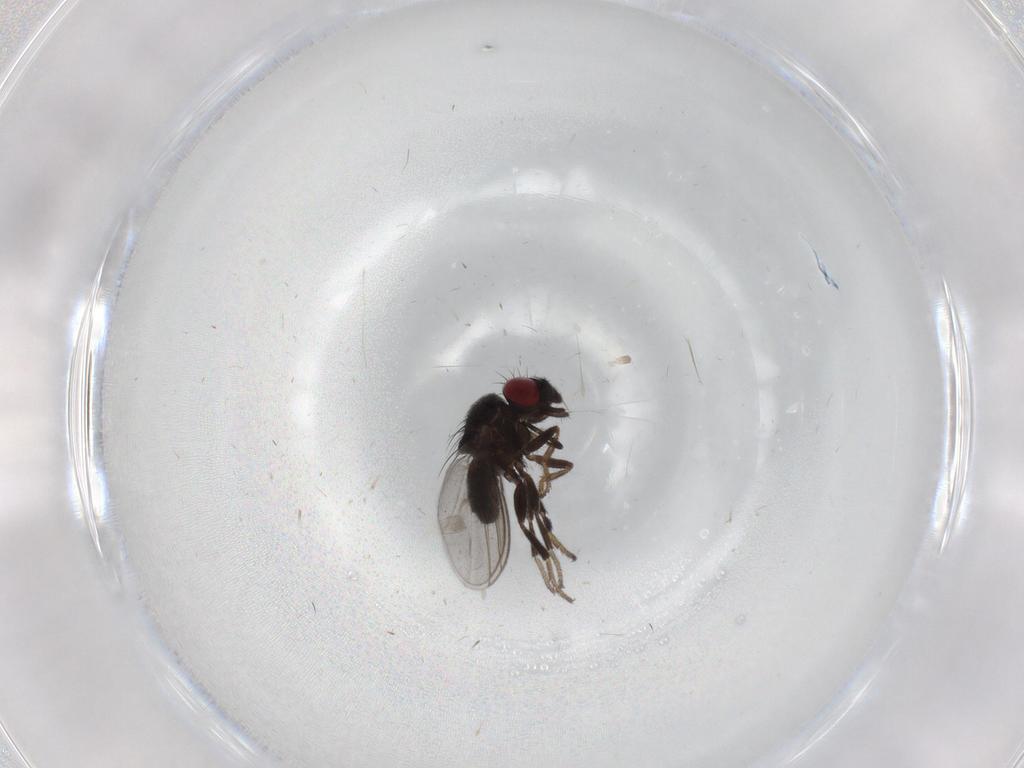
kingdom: Animalia
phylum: Arthropoda
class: Insecta
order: Diptera
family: Milichiidae
